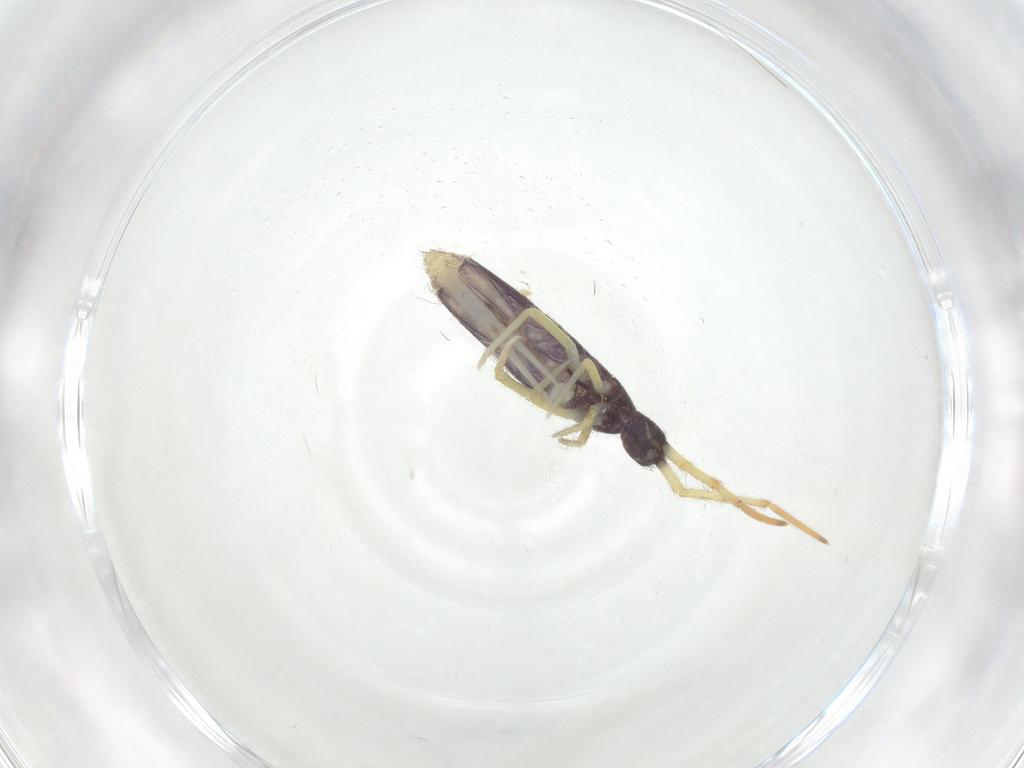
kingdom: Animalia
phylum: Arthropoda
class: Collembola
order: Entomobryomorpha
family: Entomobryidae
